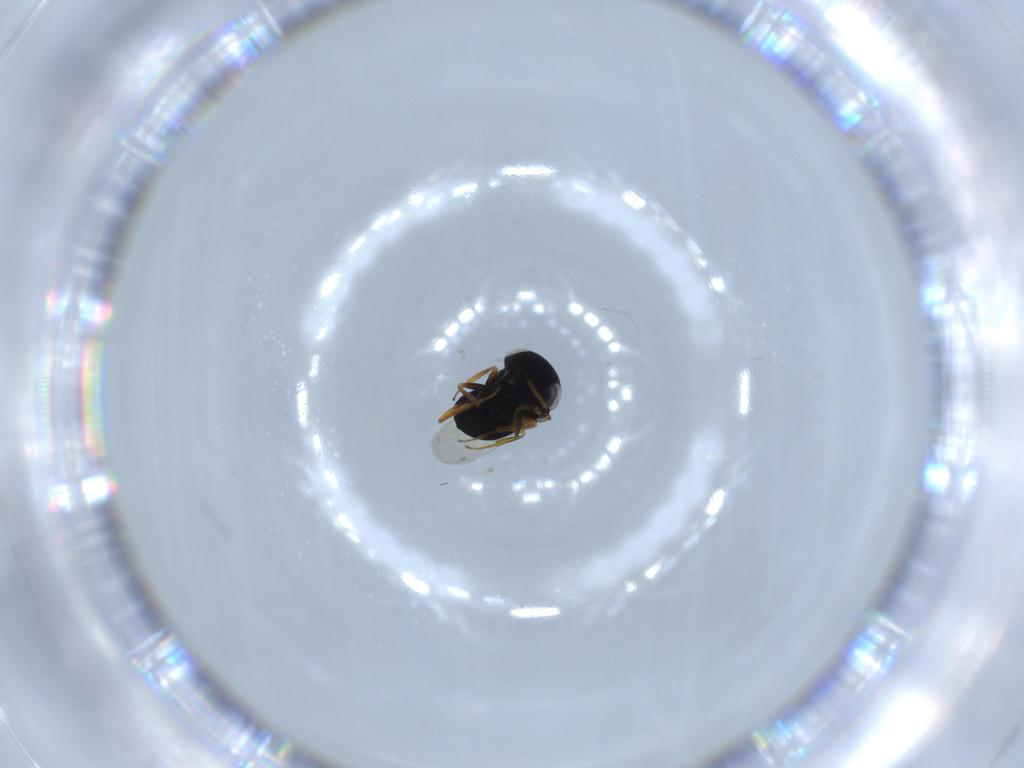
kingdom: Animalia
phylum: Arthropoda
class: Insecta
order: Hymenoptera
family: Scelionidae
